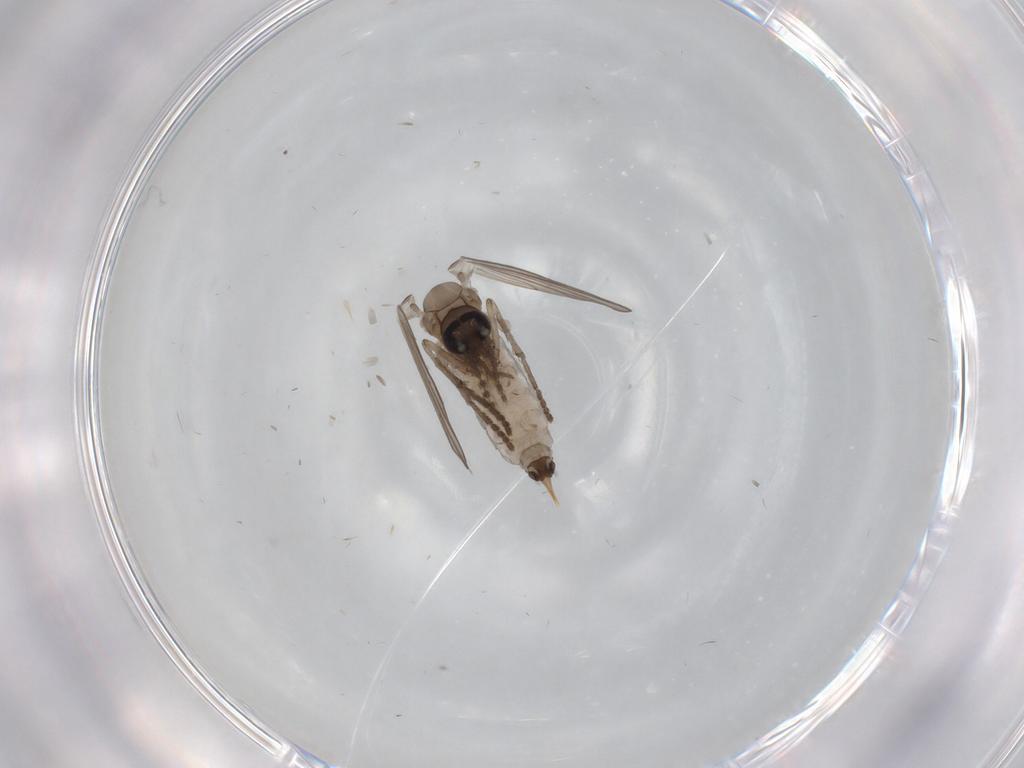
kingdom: Animalia
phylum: Arthropoda
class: Insecta
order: Diptera
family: Psychodidae
